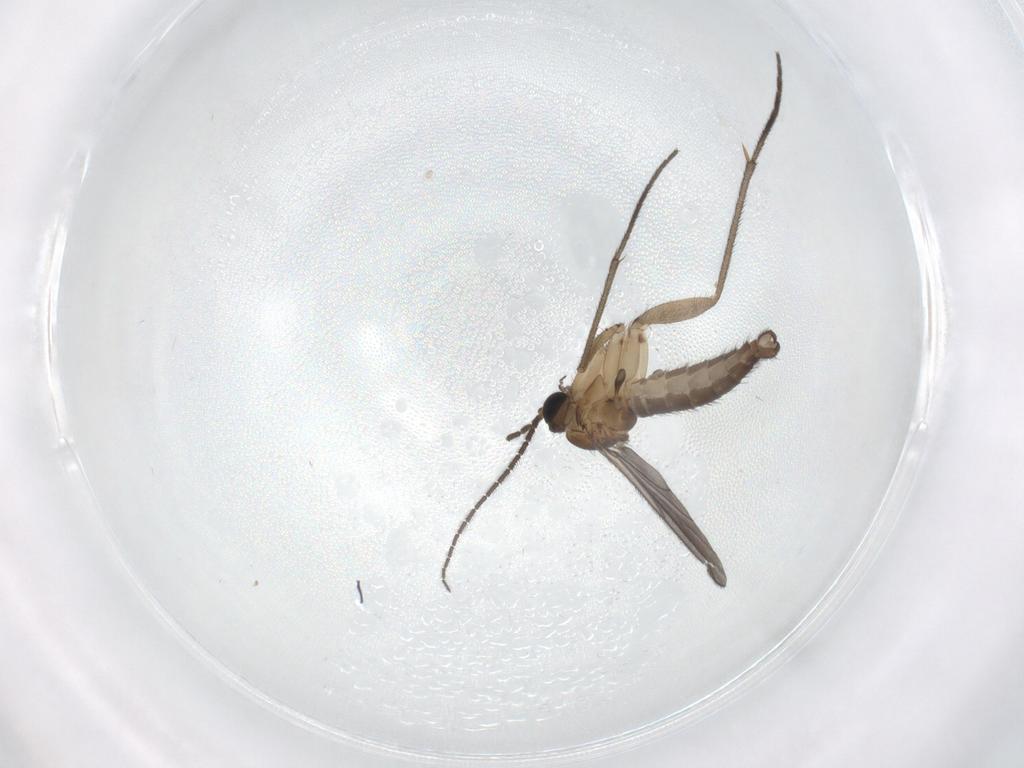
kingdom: Animalia
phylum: Arthropoda
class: Insecta
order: Diptera
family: Sciaridae
